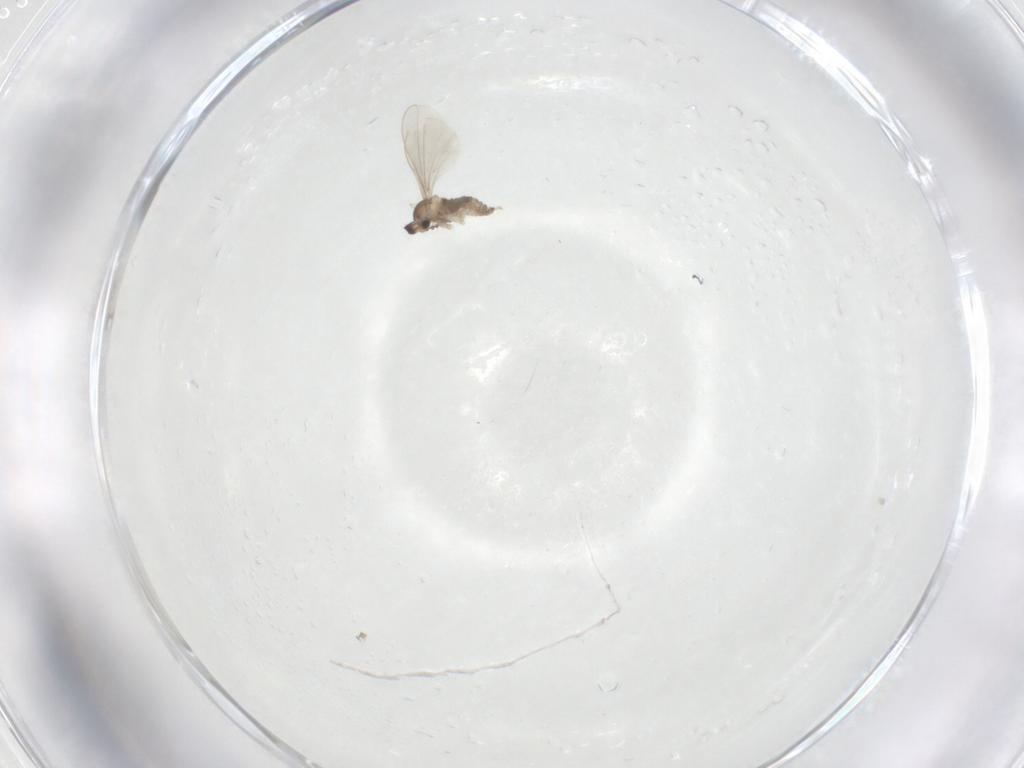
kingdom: Animalia
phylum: Arthropoda
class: Insecta
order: Diptera
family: Cecidomyiidae
